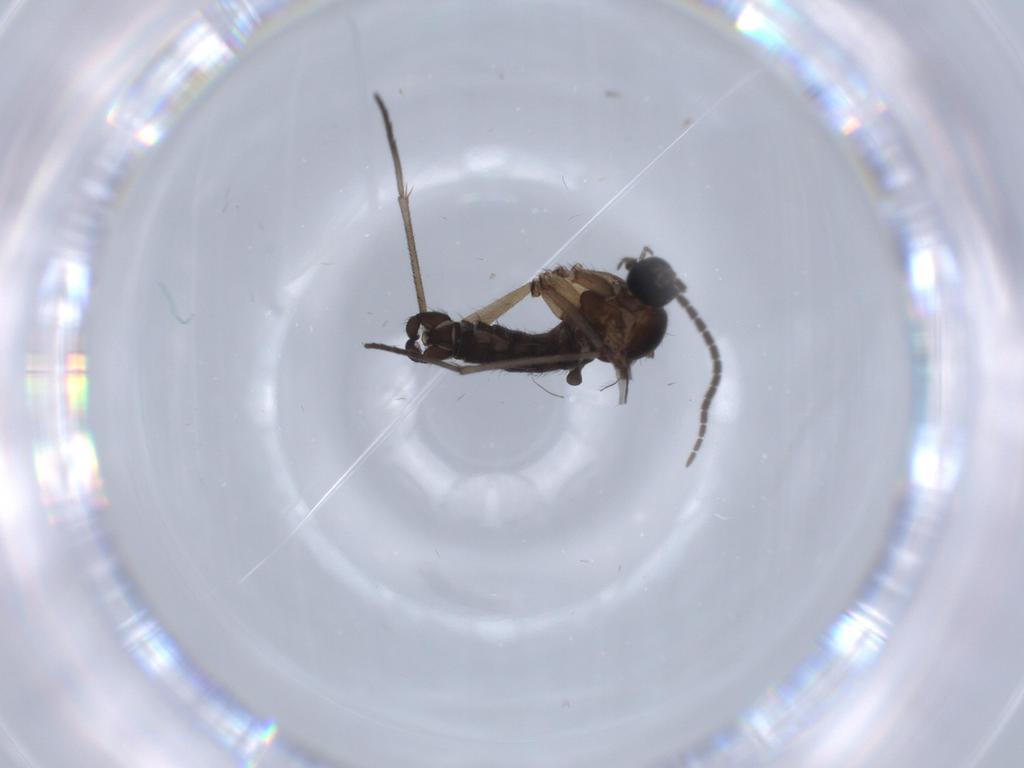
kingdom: Animalia
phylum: Arthropoda
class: Insecta
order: Diptera
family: Sciaridae
